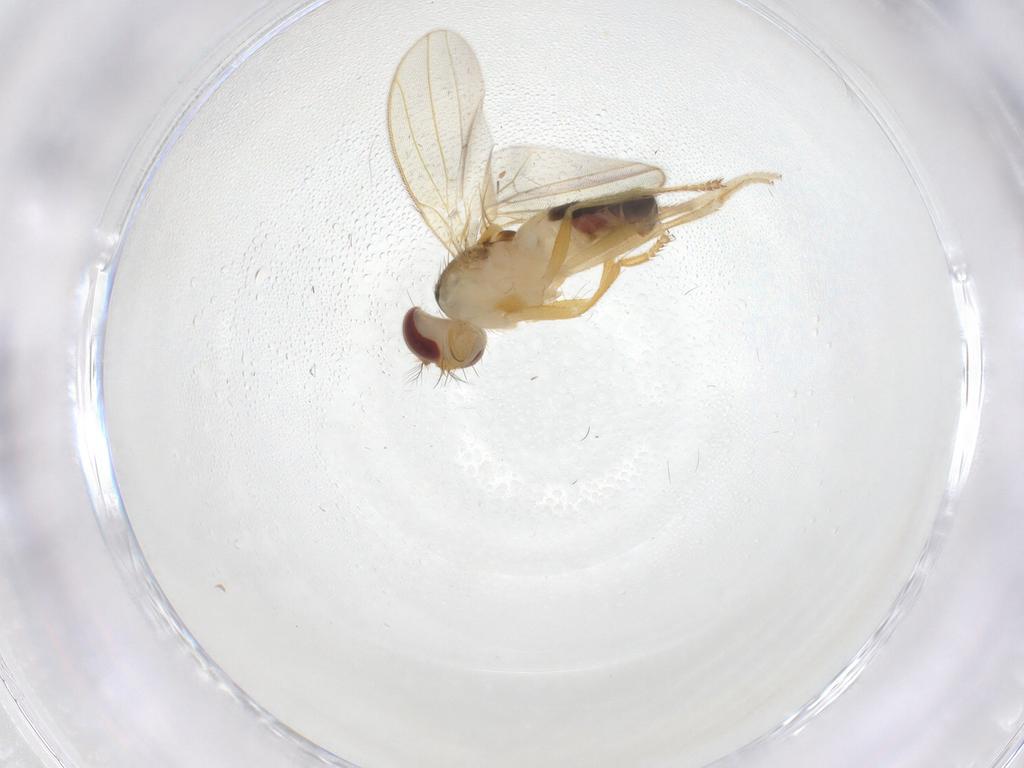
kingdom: Animalia
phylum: Arthropoda
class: Insecta
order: Diptera
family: Periscelididae
